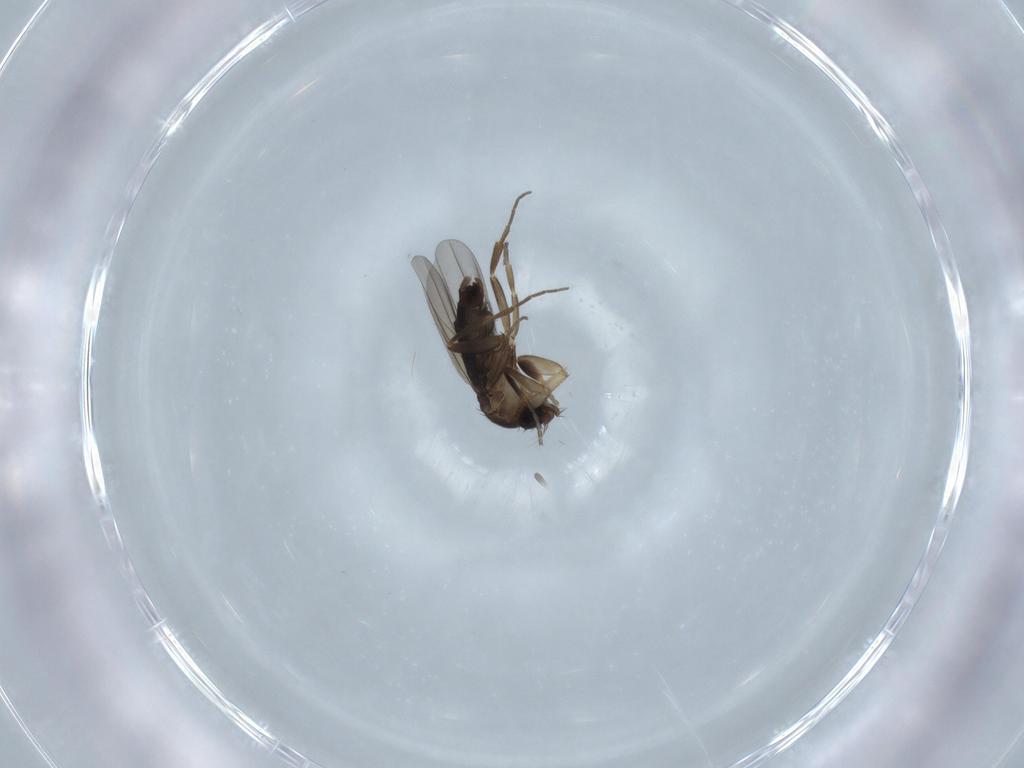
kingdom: Animalia
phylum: Arthropoda
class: Insecta
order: Diptera
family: Phoridae
